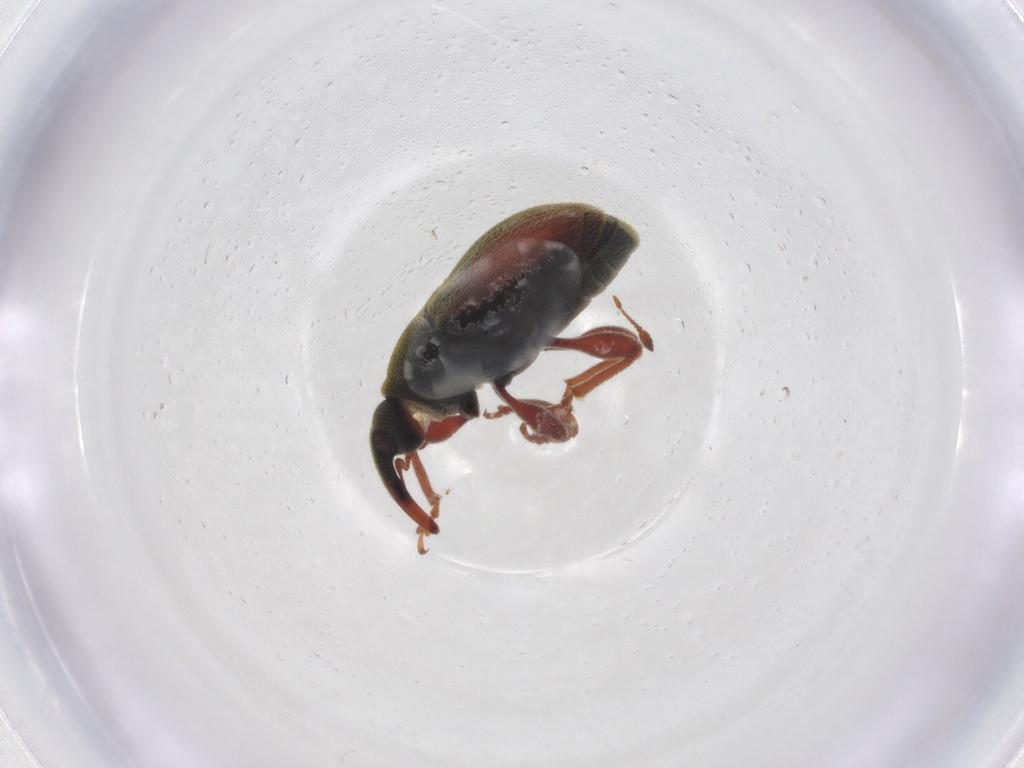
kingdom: Animalia
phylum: Arthropoda
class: Insecta
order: Coleoptera
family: Curculionidae
